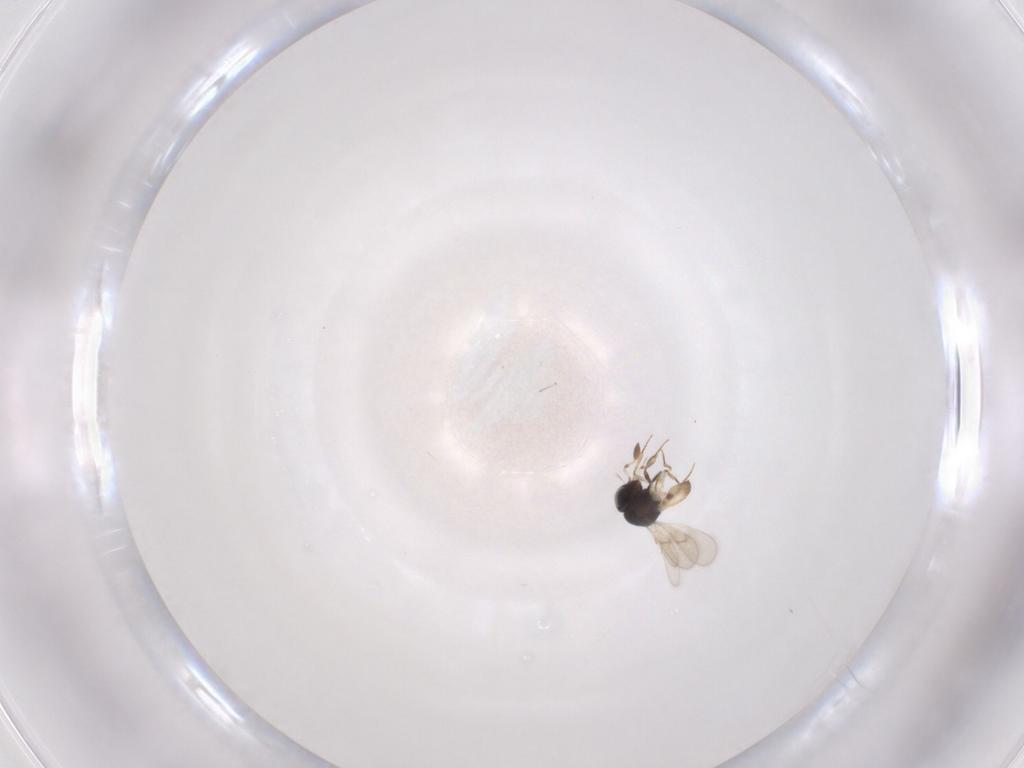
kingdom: Animalia
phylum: Arthropoda
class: Insecta
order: Hymenoptera
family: Scelionidae
